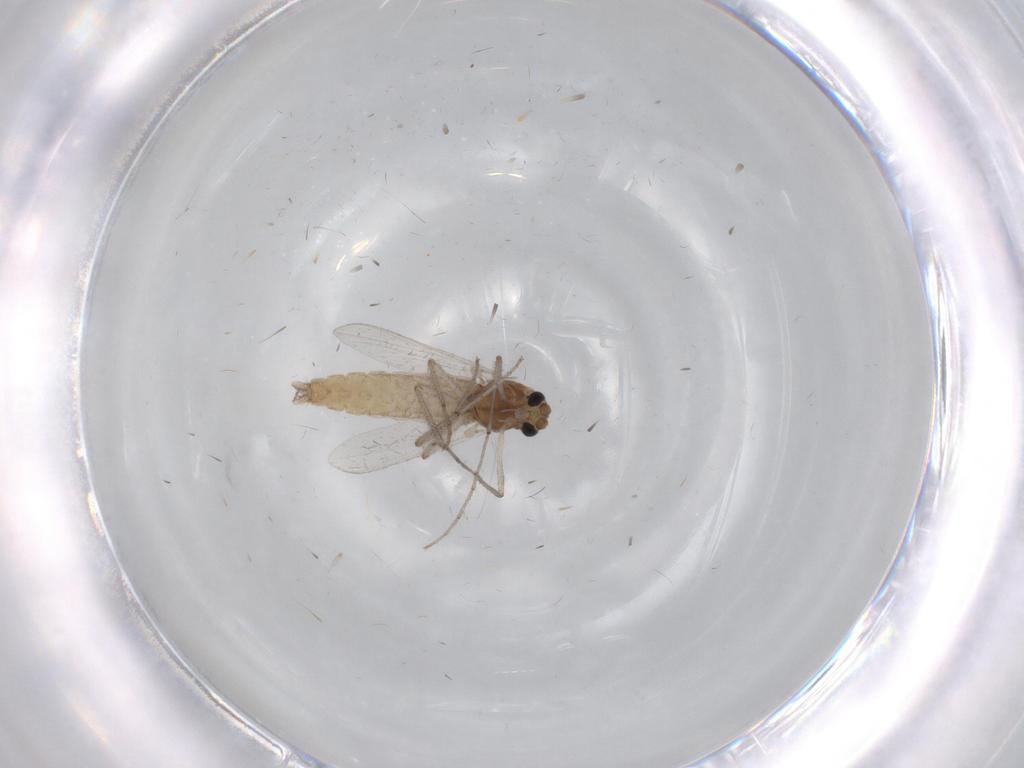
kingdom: Animalia
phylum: Arthropoda
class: Insecta
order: Diptera
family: Chironomidae
